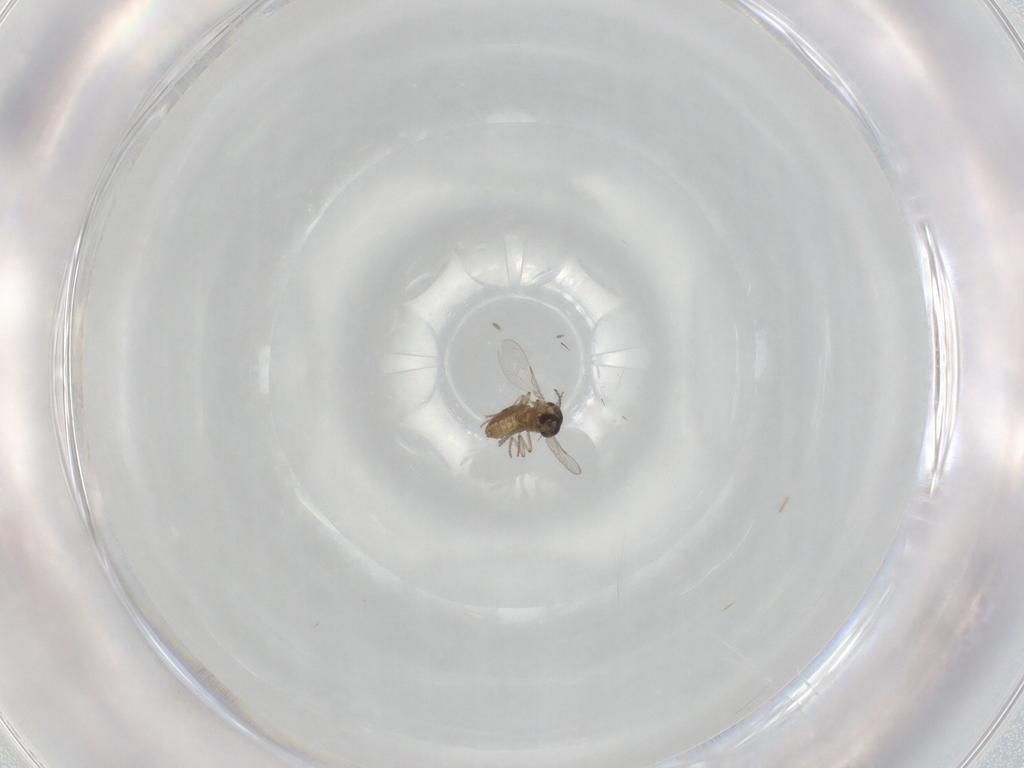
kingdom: Animalia
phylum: Arthropoda
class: Insecta
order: Diptera
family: Ceratopogonidae
